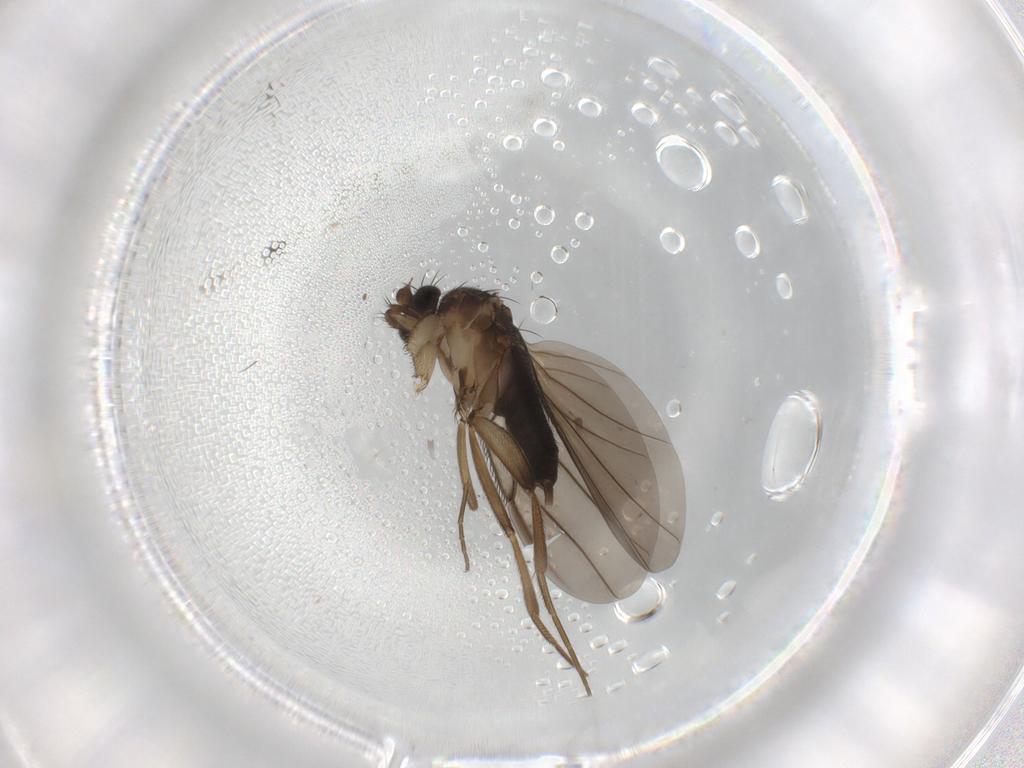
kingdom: Animalia
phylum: Arthropoda
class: Insecta
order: Diptera
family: Phoridae
